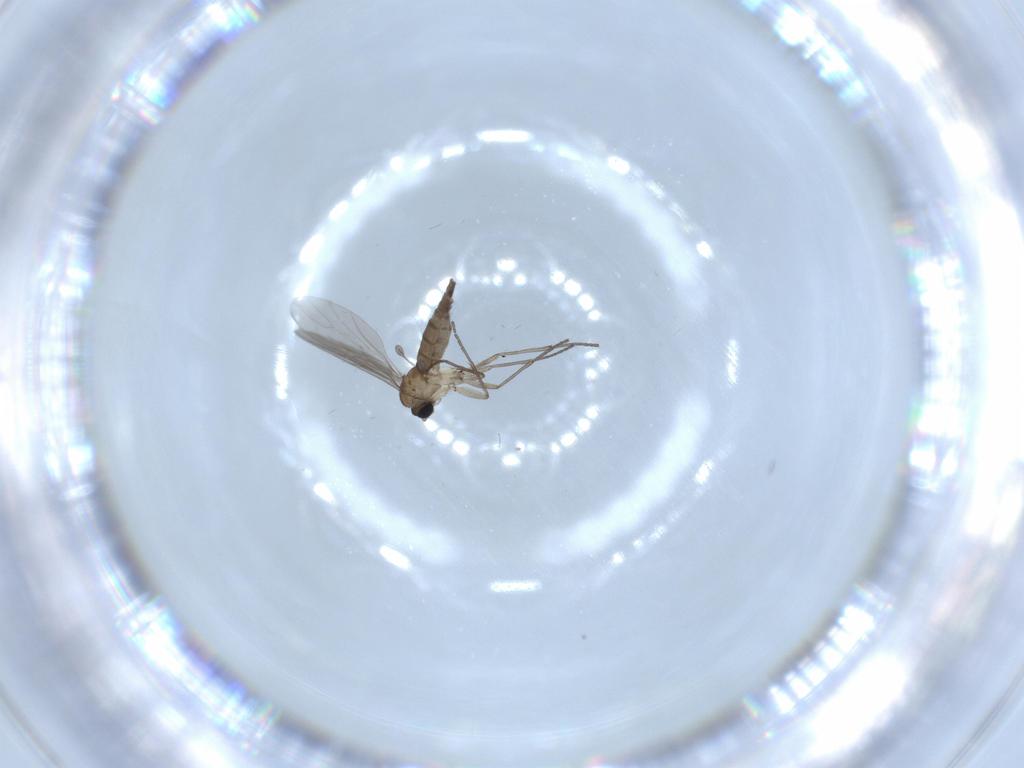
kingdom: Animalia
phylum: Arthropoda
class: Insecta
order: Diptera
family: Sciaridae
